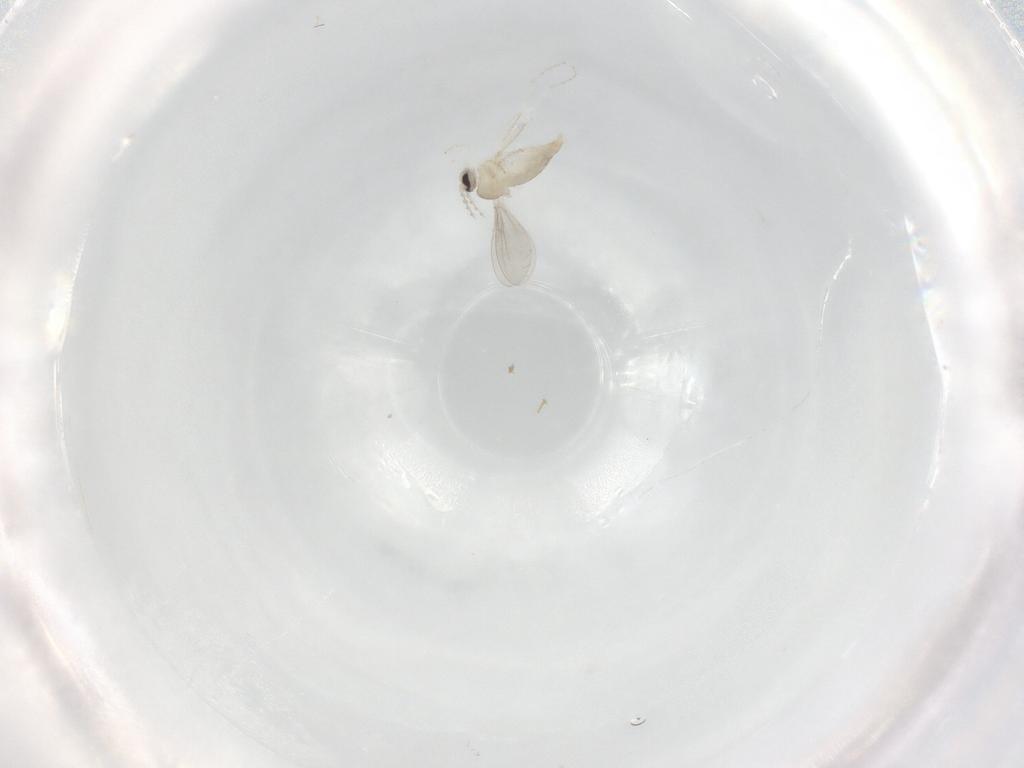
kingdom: Animalia
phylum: Arthropoda
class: Insecta
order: Diptera
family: Cecidomyiidae
